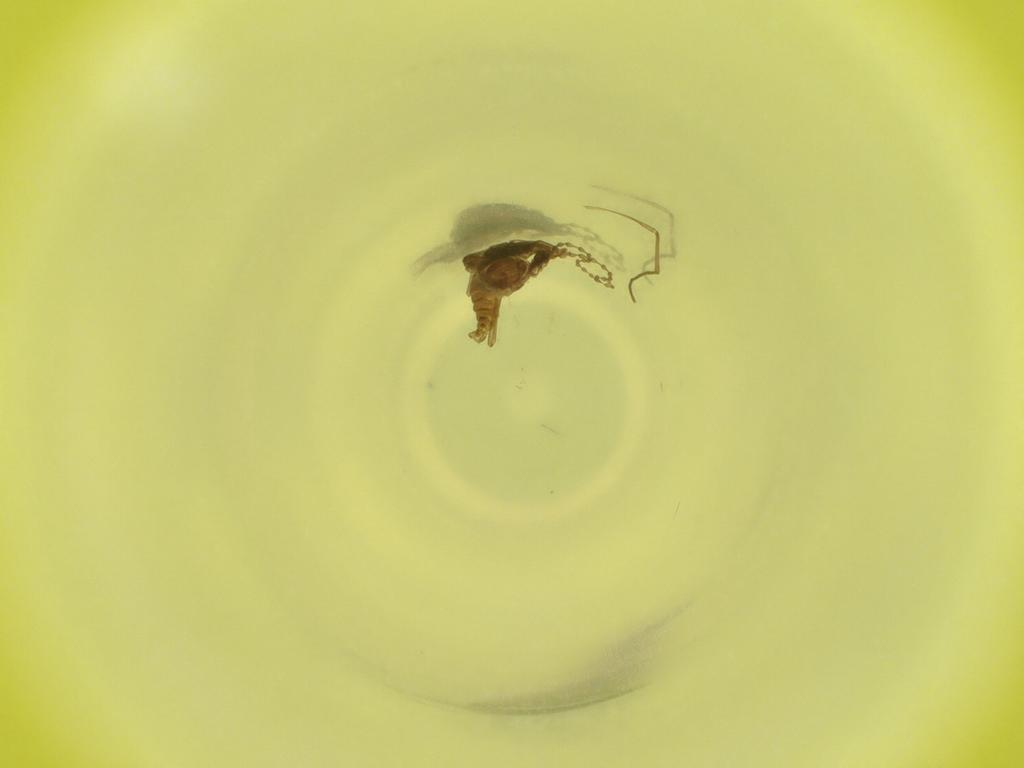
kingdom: Animalia
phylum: Arthropoda
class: Insecta
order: Diptera
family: Cecidomyiidae
